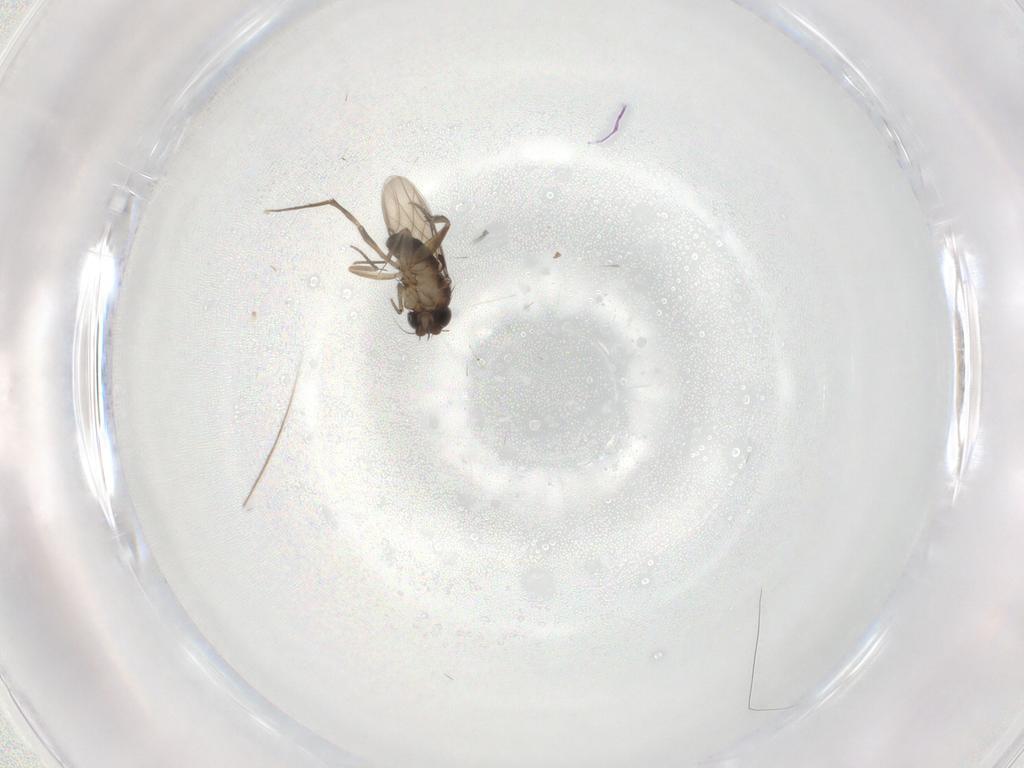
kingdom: Animalia
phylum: Arthropoda
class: Insecta
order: Diptera
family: Phoridae
